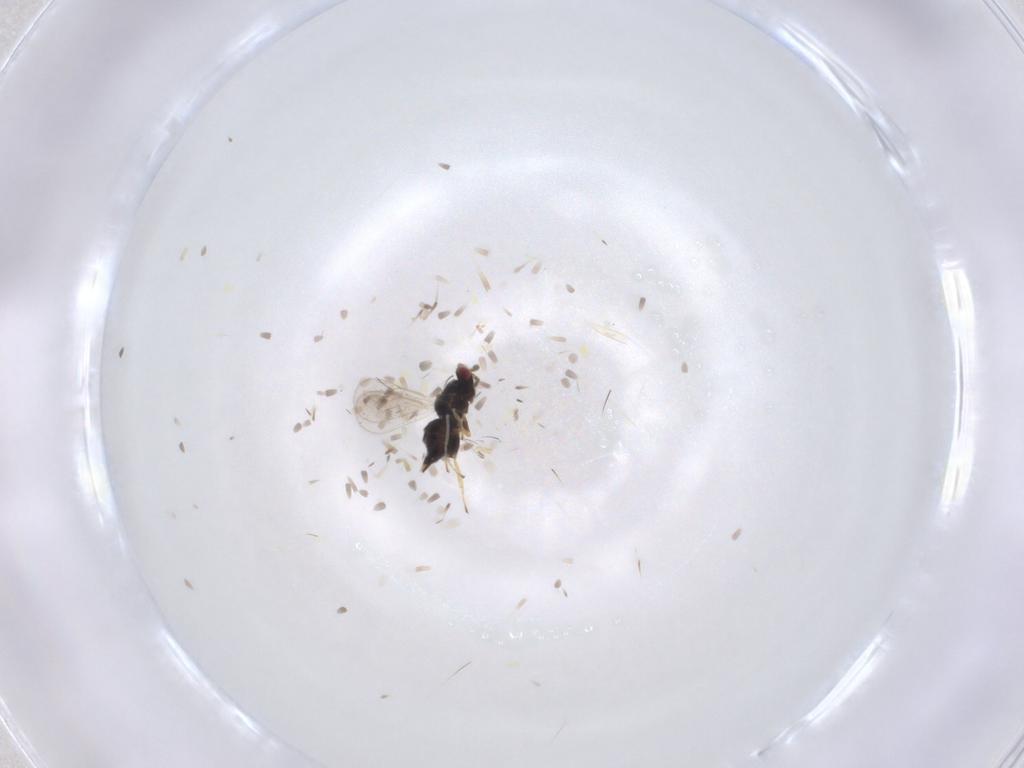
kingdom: Animalia
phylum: Arthropoda
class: Insecta
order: Hymenoptera
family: Eulophidae
